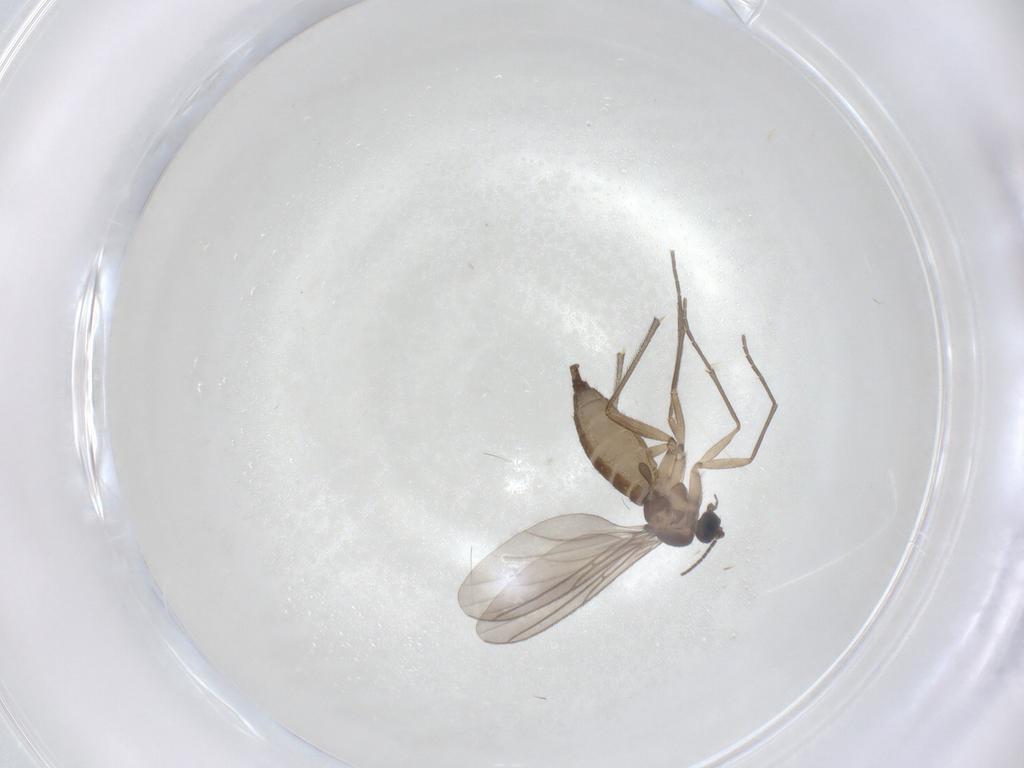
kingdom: Animalia
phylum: Arthropoda
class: Insecta
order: Diptera
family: Sciaridae
